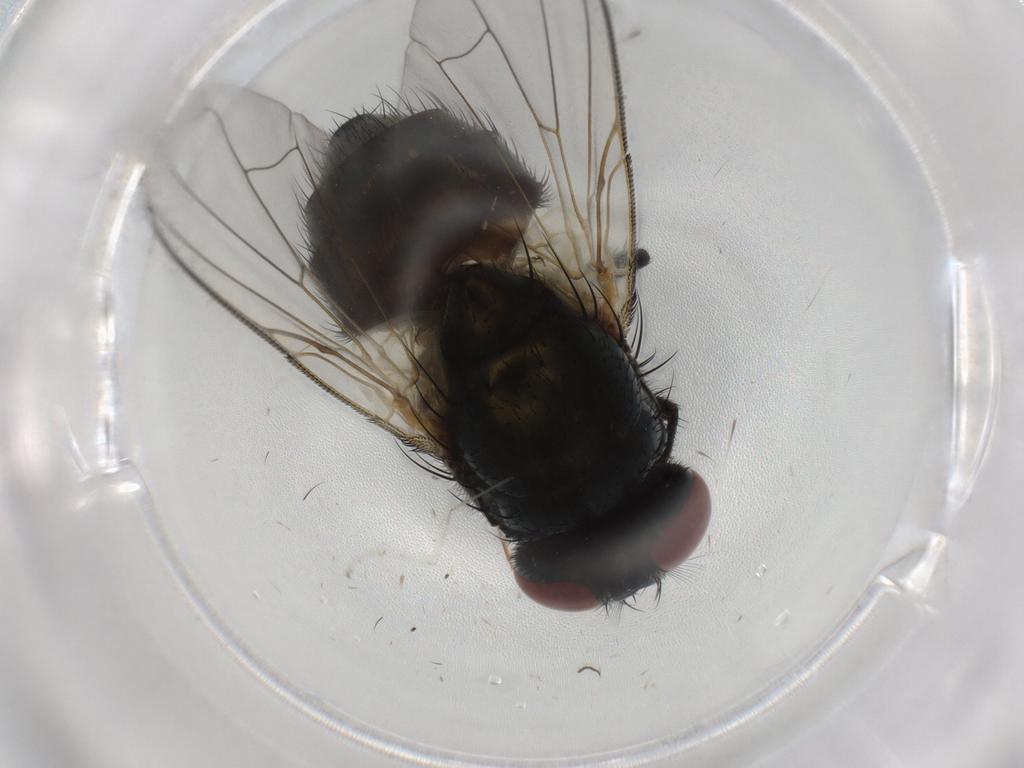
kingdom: Animalia
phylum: Arthropoda
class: Insecta
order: Diptera
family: Muscidae
